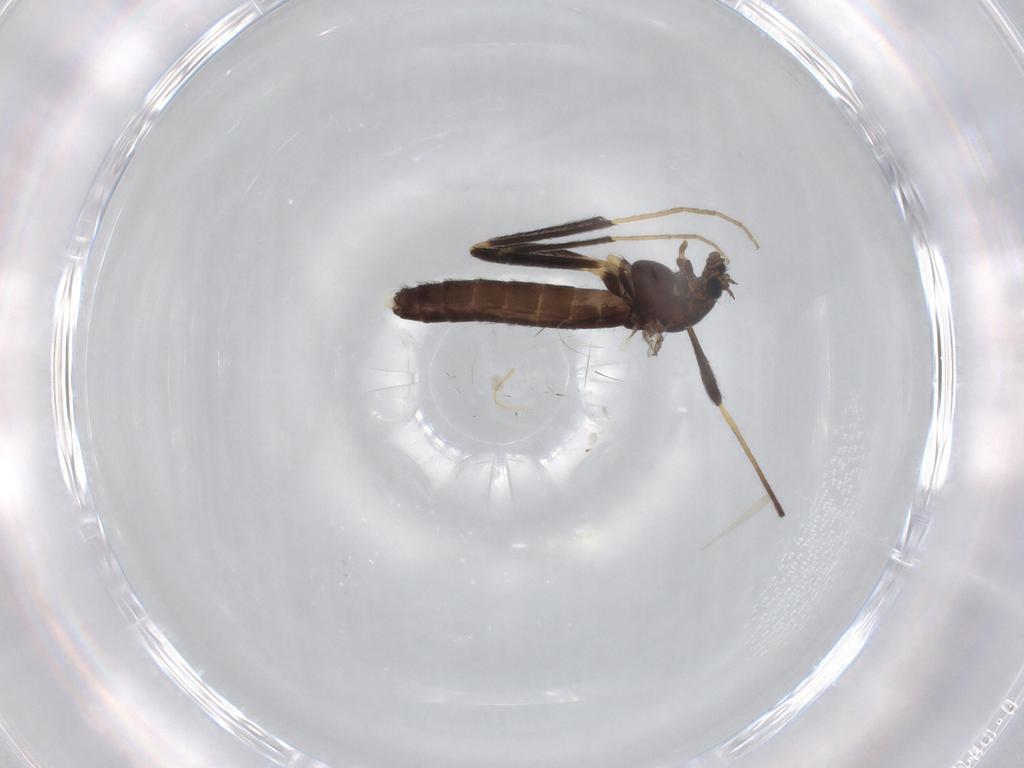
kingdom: Animalia
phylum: Arthropoda
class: Insecta
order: Diptera
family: Chironomidae
